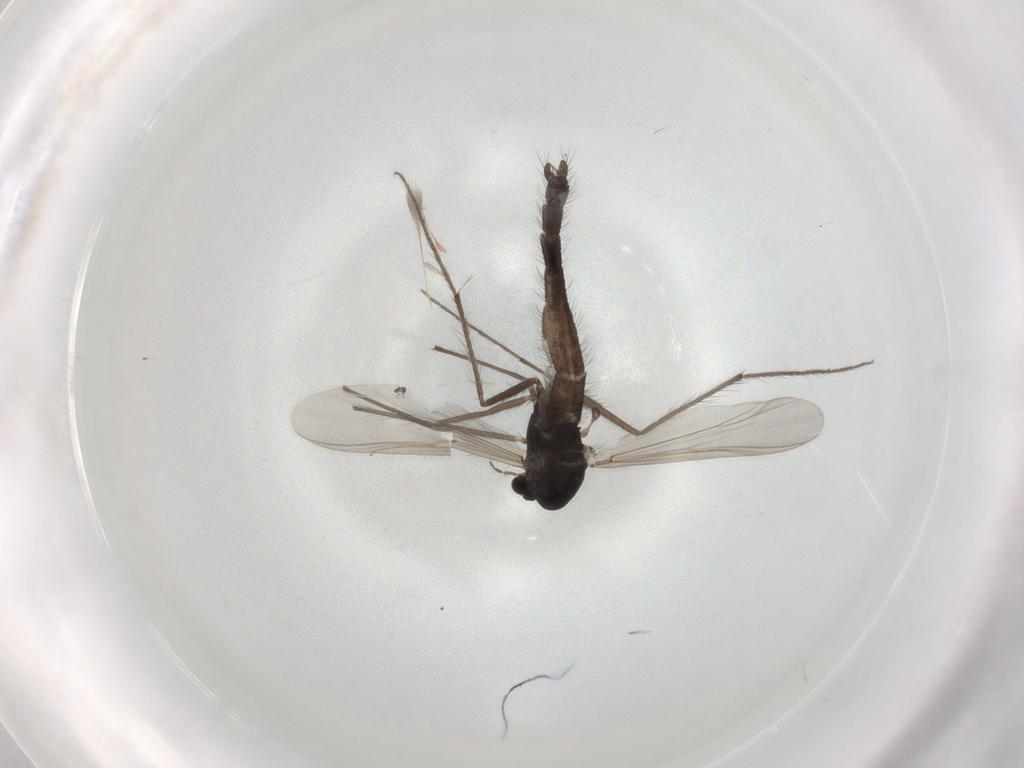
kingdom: Animalia
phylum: Arthropoda
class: Insecta
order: Diptera
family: Chironomidae
